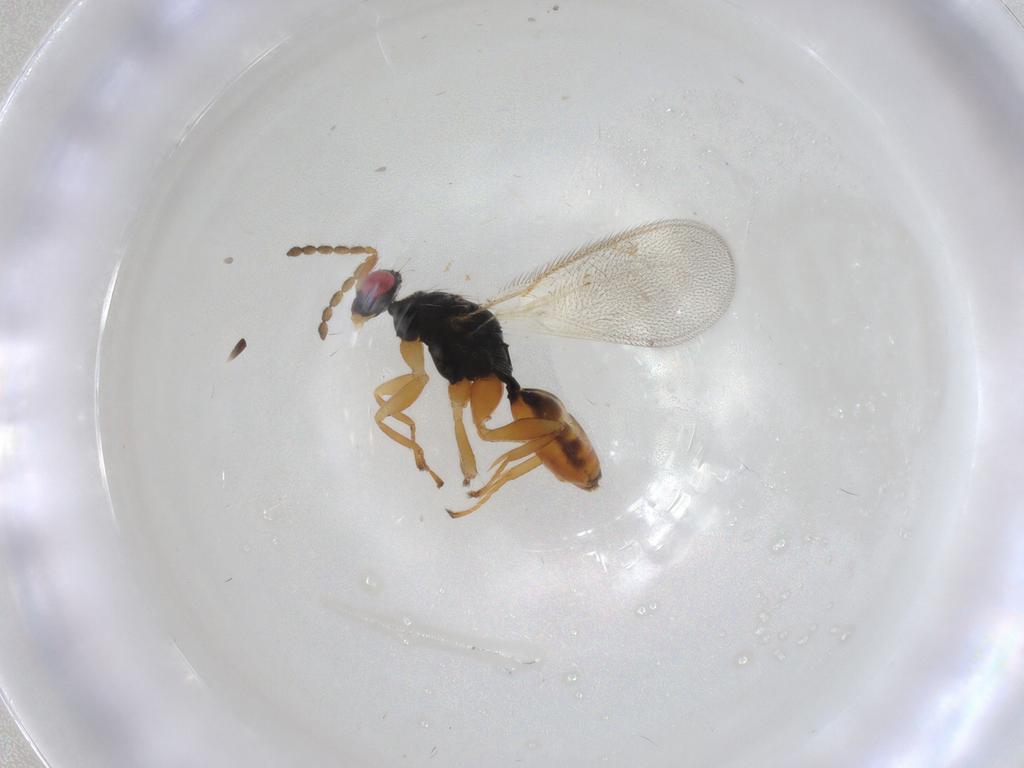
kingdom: Animalia
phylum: Arthropoda
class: Insecta
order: Hymenoptera
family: Eulophidae
